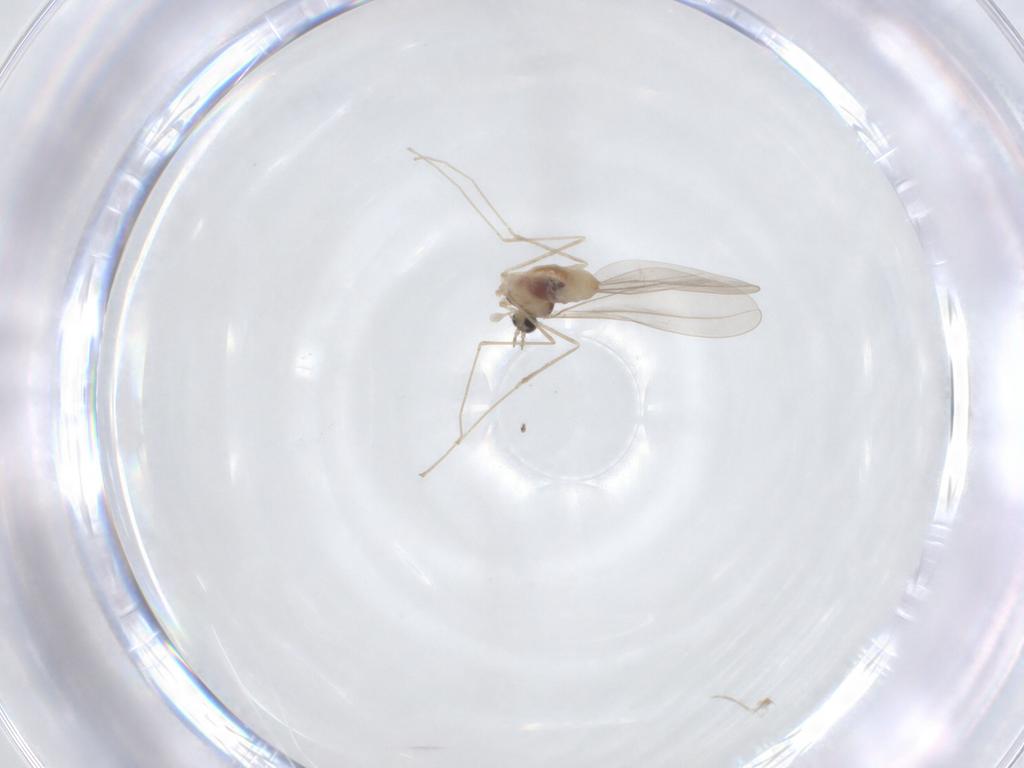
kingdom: Animalia
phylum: Arthropoda
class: Insecta
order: Diptera
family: Cecidomyiidae
